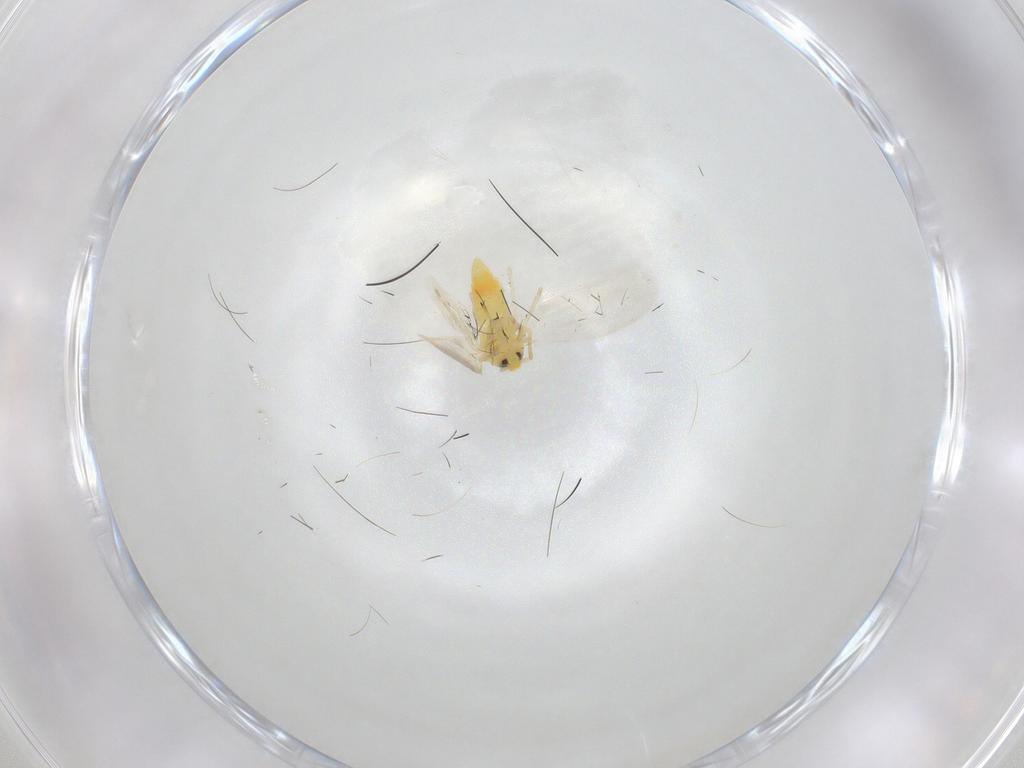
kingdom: Animalia
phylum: Arthropoda
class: Insecta
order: Hemiptera
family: Aleyrodidae
